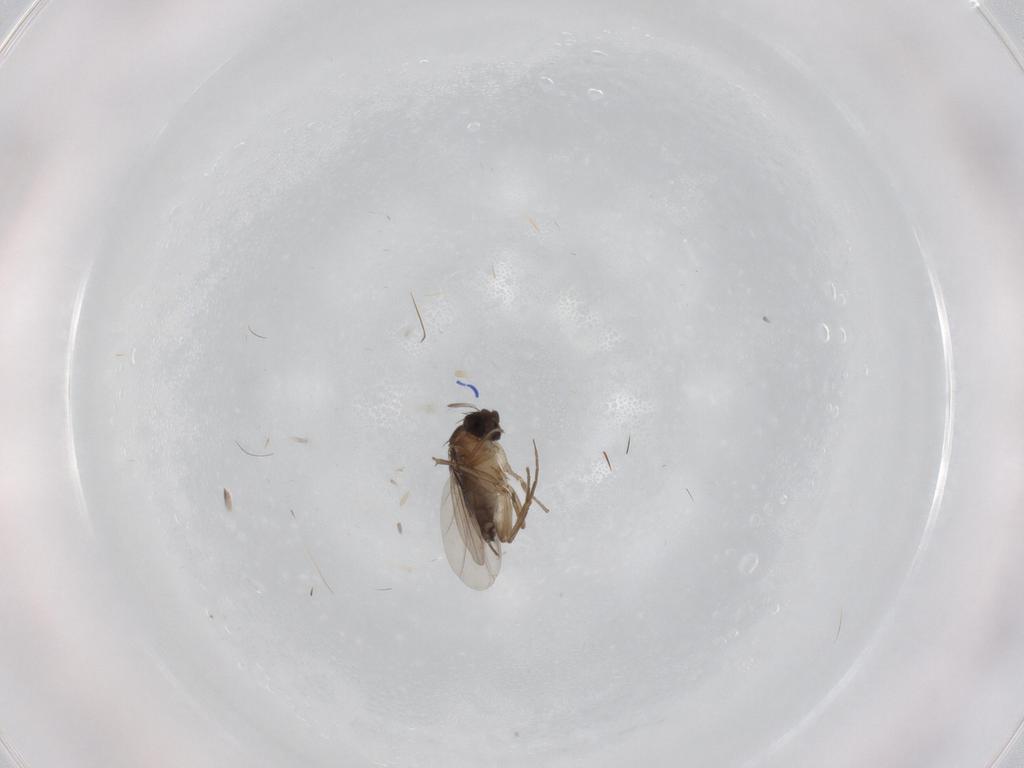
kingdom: Animalia
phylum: Arthropoda
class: Insecta
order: Diptera
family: Phoridae
